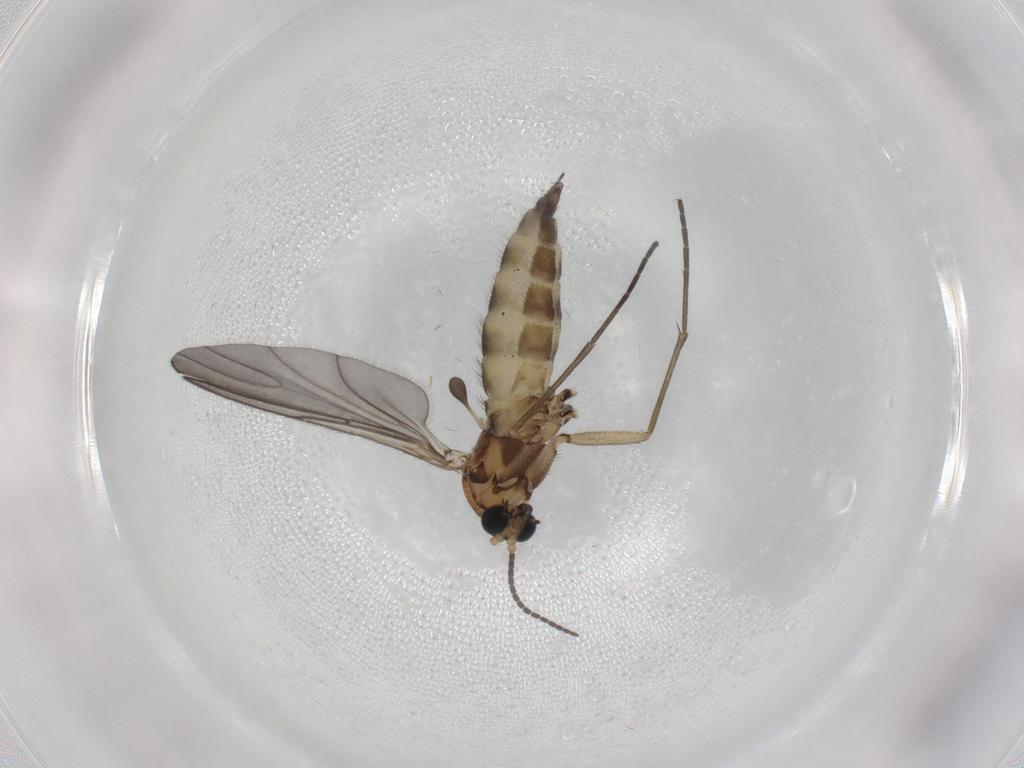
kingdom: Animalia
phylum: Arthropoda
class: Insecta
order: Diptera
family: Sciaridae
